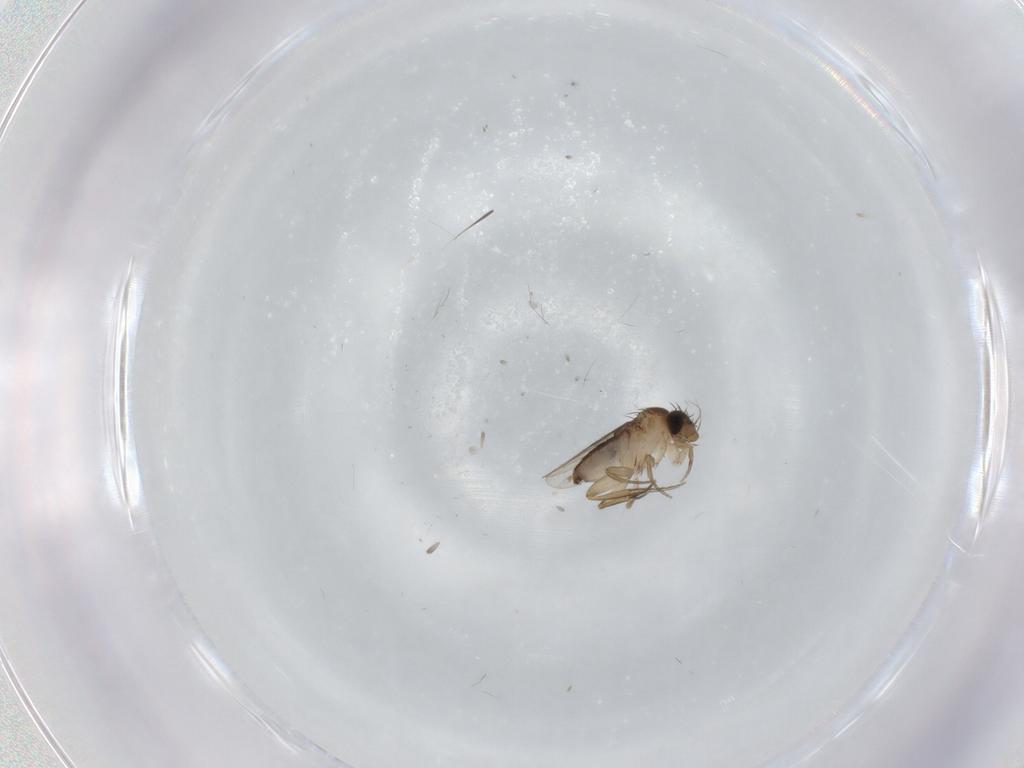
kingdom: Animalia
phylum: Arthropoda
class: Insecta
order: Diptera
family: Phoridae
